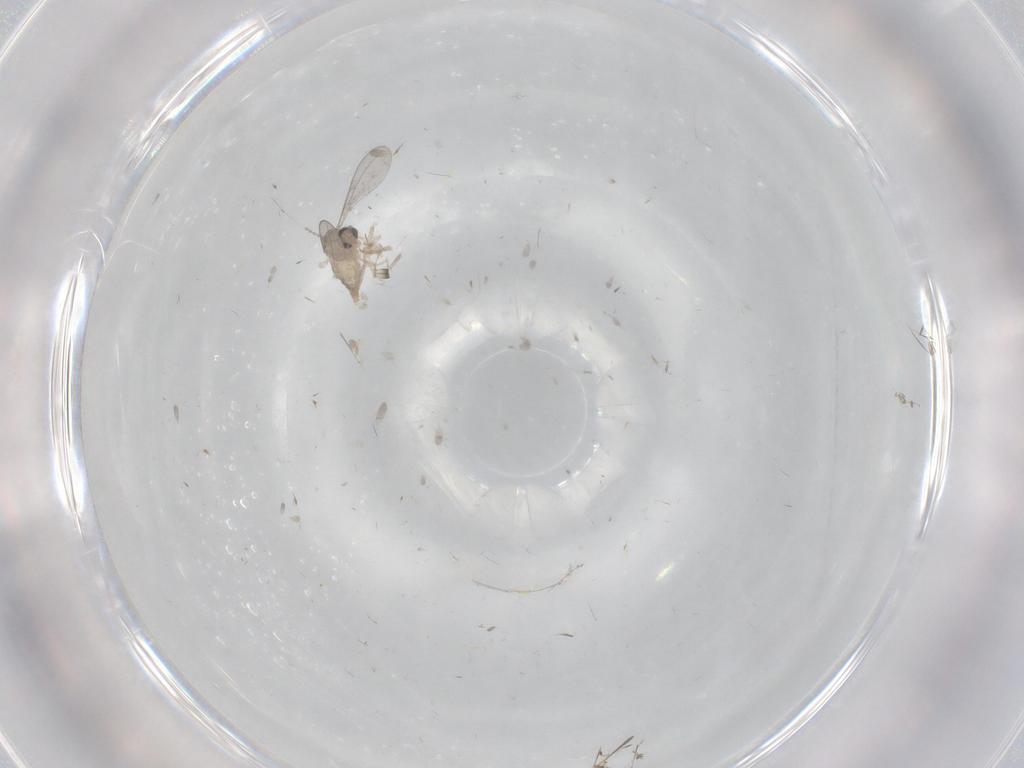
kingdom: Animalia
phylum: Arthropoda
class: Insecta
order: Diptera
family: Cecidomyiidae
